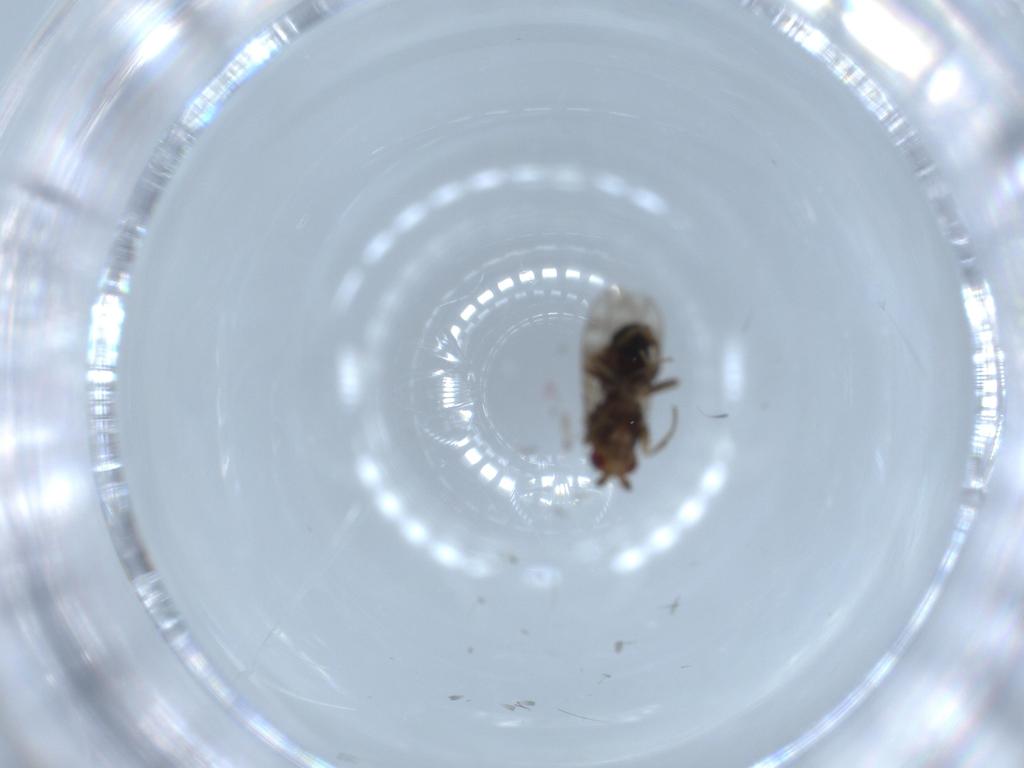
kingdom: Animalia
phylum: Arthropoda
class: Insecta
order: Diptera
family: Sphaeroceridae
